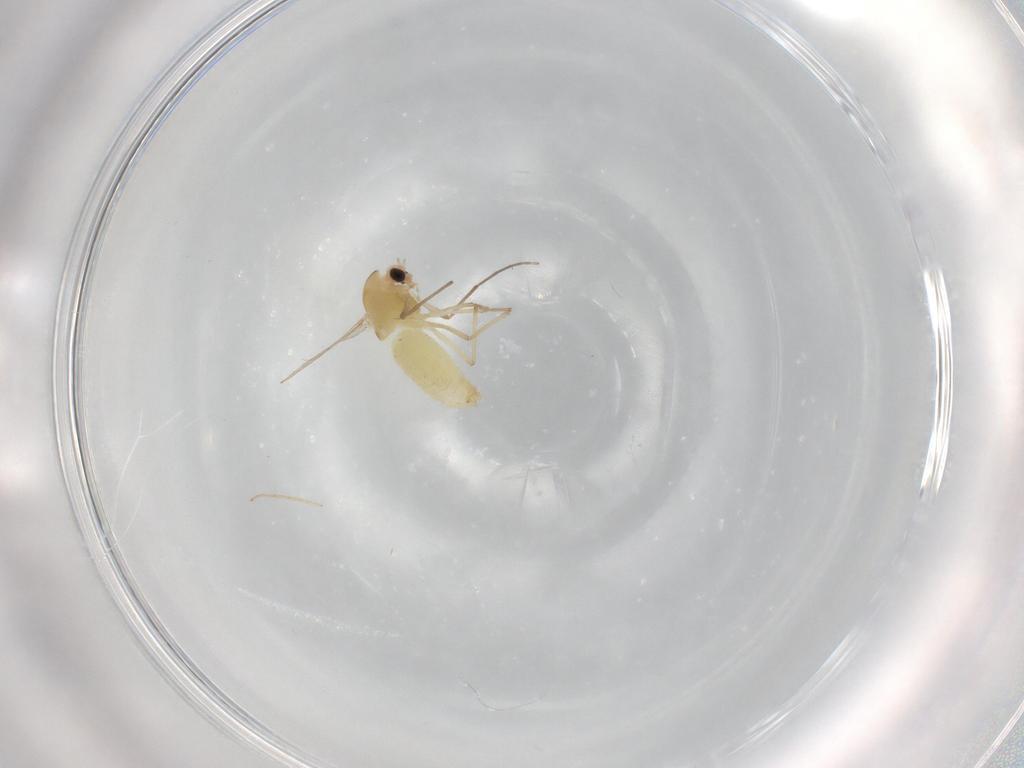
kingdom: Animalia
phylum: Arthropoda
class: Insecta
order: Diptera
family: Chironomidae
